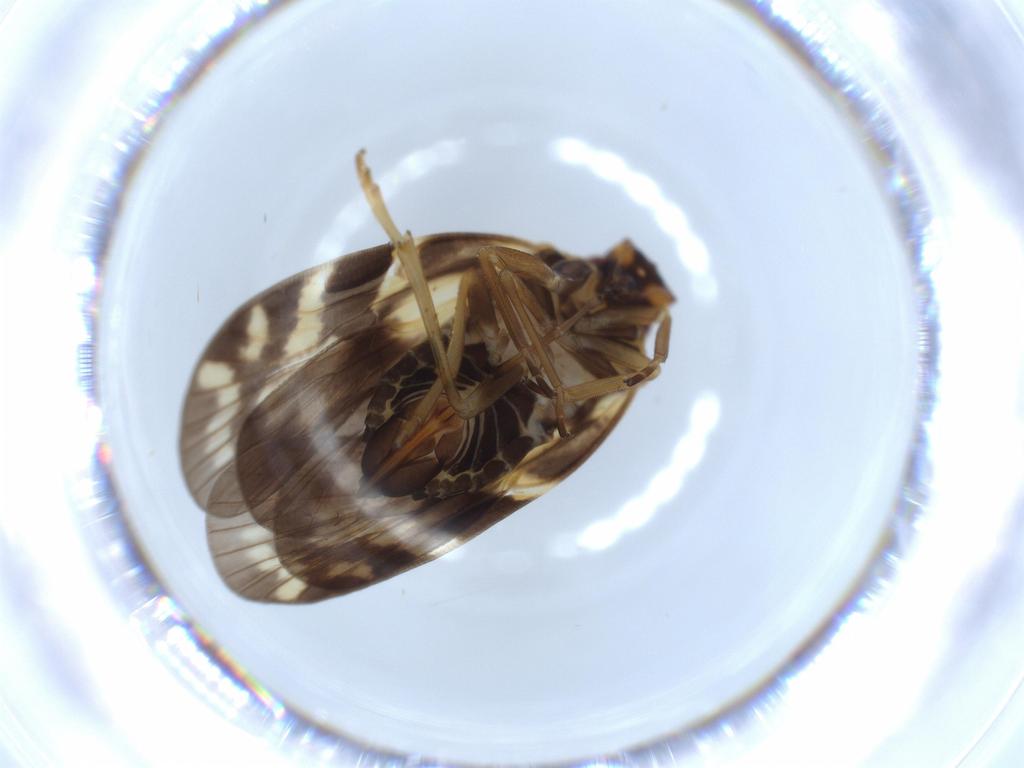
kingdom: Animalia
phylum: Arthropoda
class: Insecta
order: Hemiptera
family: Cixiidae
